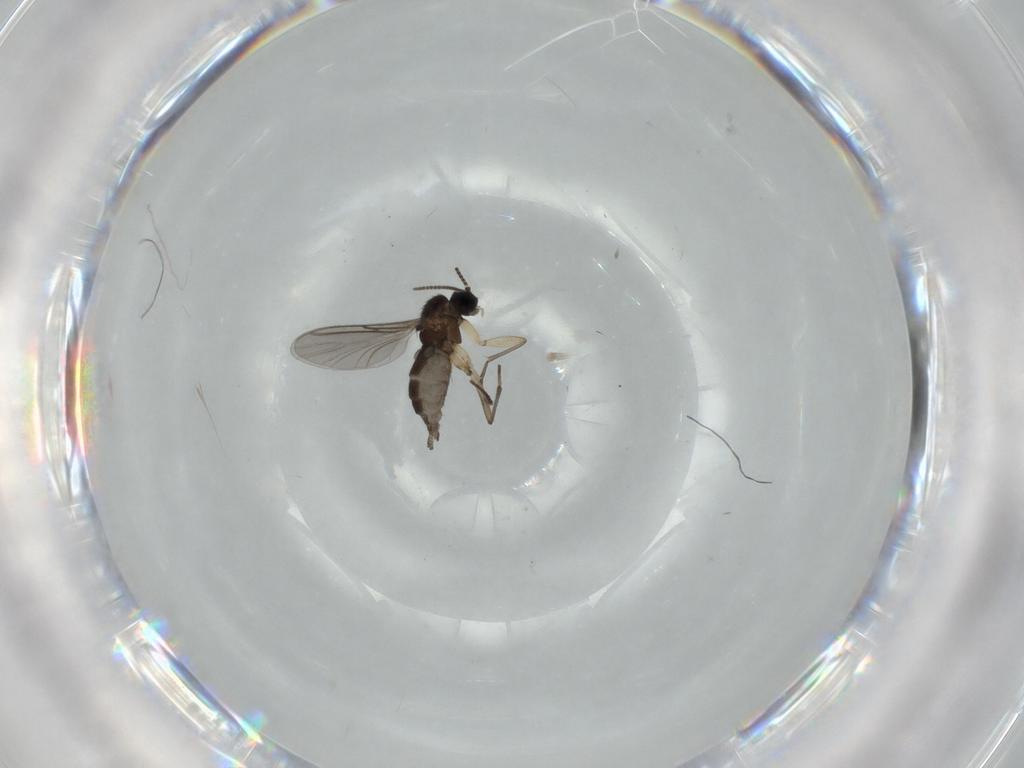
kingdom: Animalia
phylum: Arthropoda
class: Insecta
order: Diptera
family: Sciaridae
